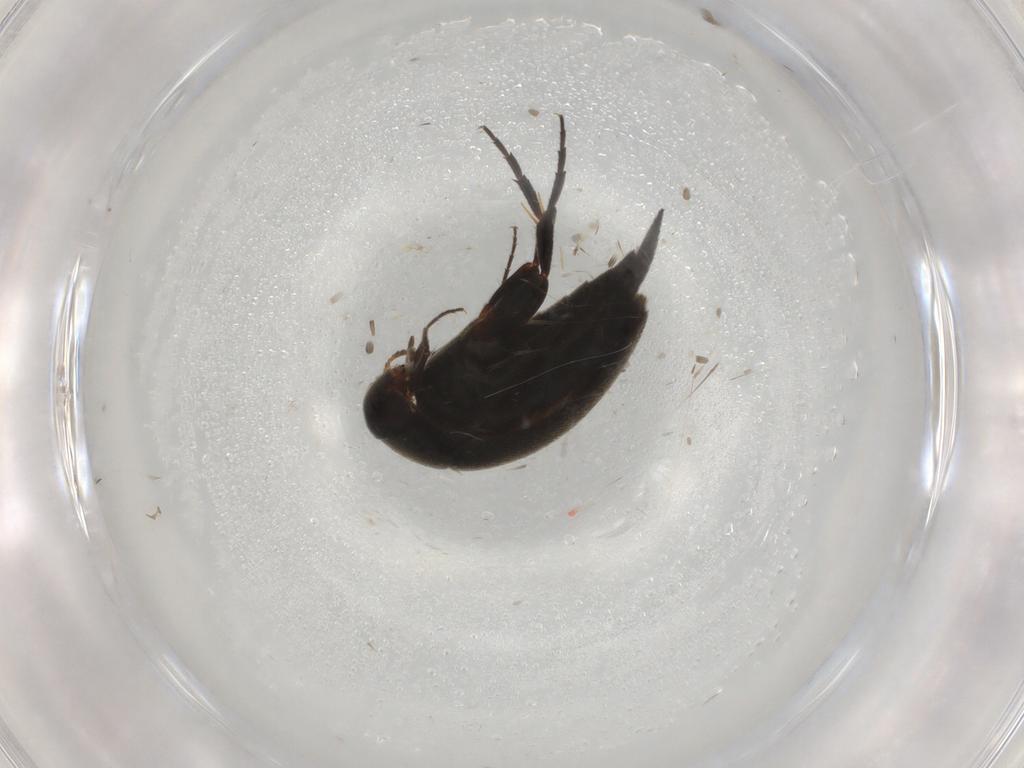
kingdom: Animalia
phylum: Arthropoda
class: Insecta
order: Coleoptera
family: Mordellidae
